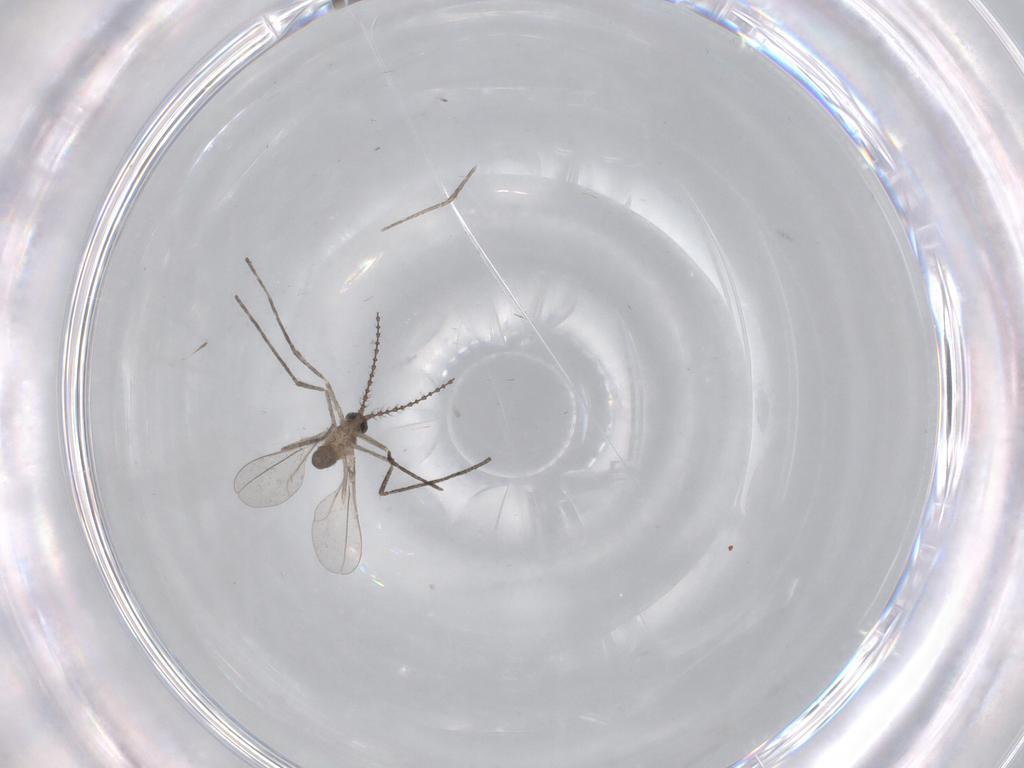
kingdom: Animalia
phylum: Arthropoda
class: Insecta
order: Diptera
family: Cecidomyiidae
